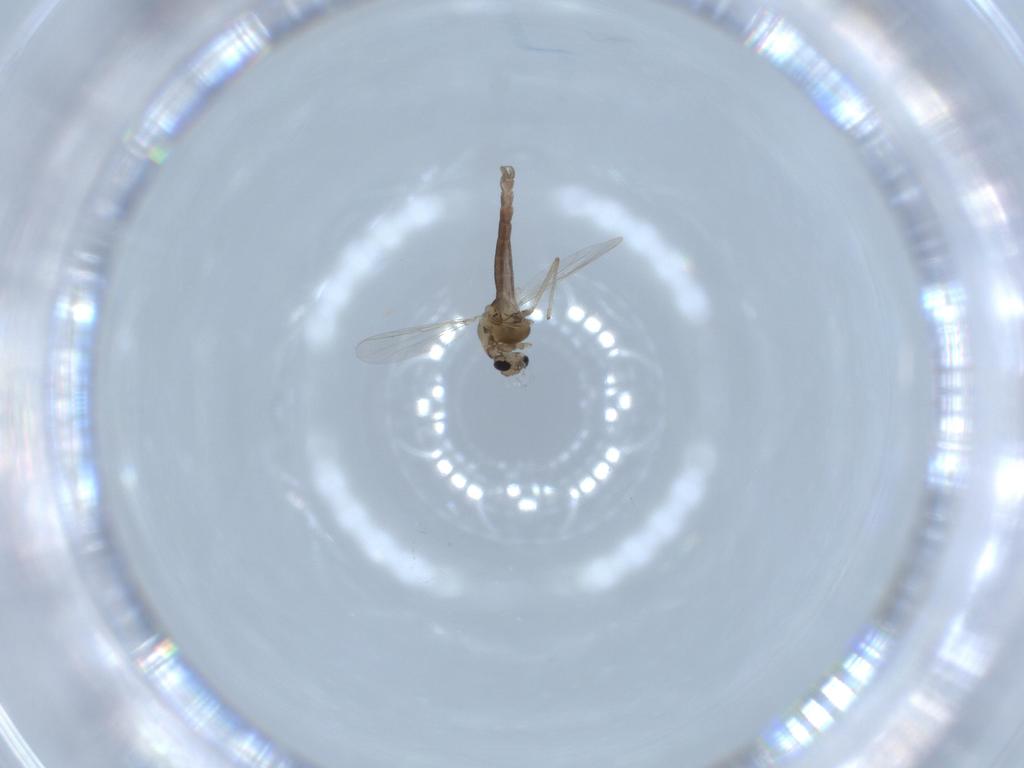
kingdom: Animalia
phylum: Arthropoda
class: Insecta
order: Diptera
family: Chironomidae
